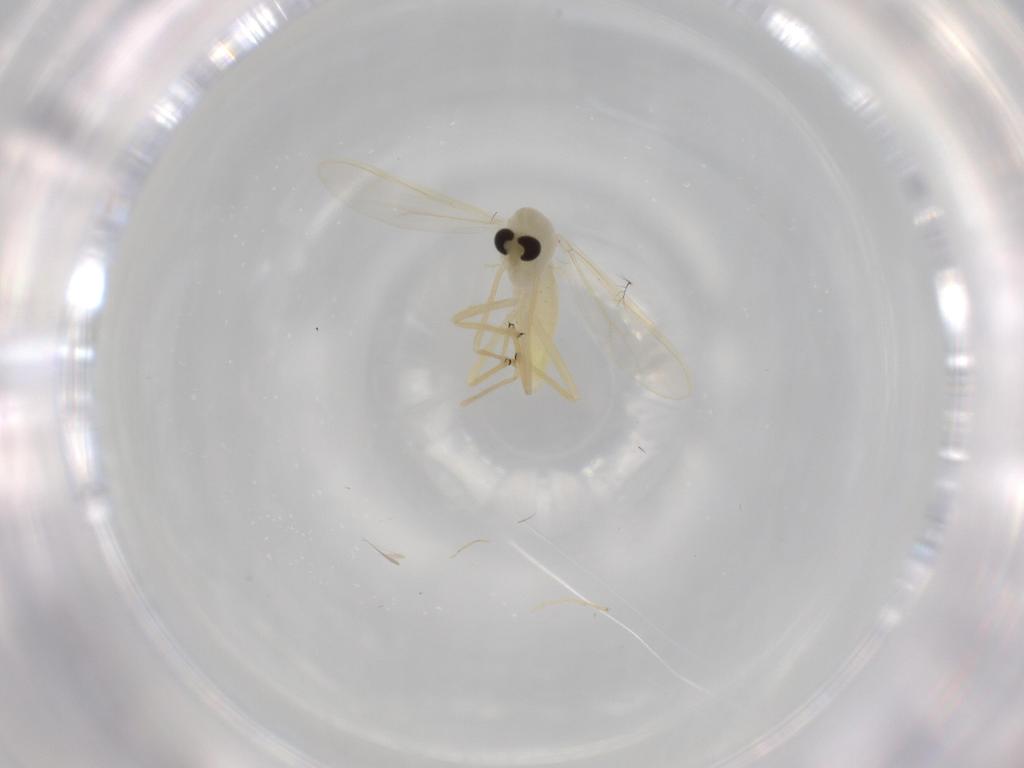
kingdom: Animalia
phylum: Arthropoda
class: Insecta
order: Diptera
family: Chironomidae
